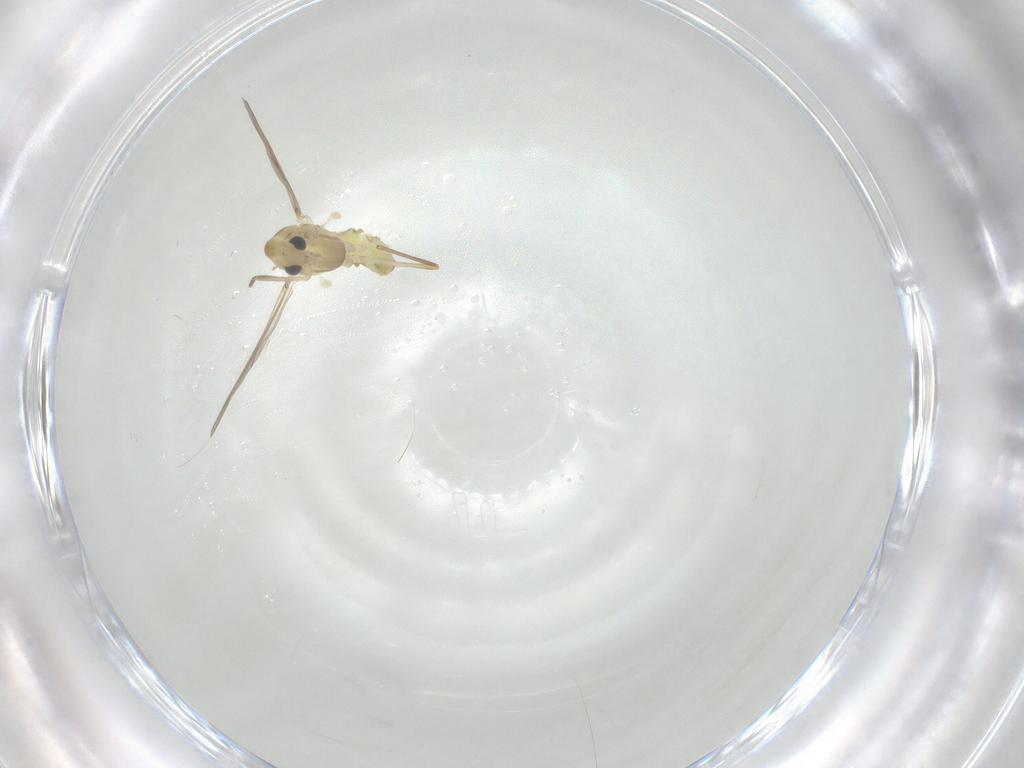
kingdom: Animalia
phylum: Arthropoda
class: Insecta
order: Diptera
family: Chironomidae
